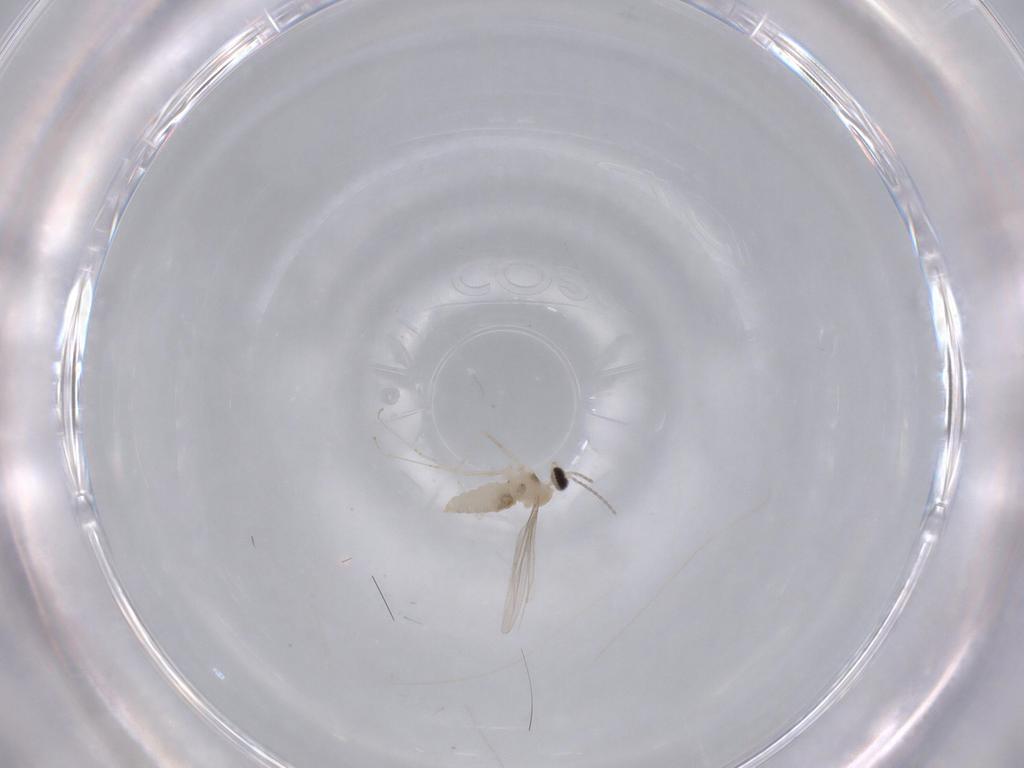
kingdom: Animalia
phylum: Arthropoda
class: Insecta
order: Diptera
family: Cecidomyiidae
